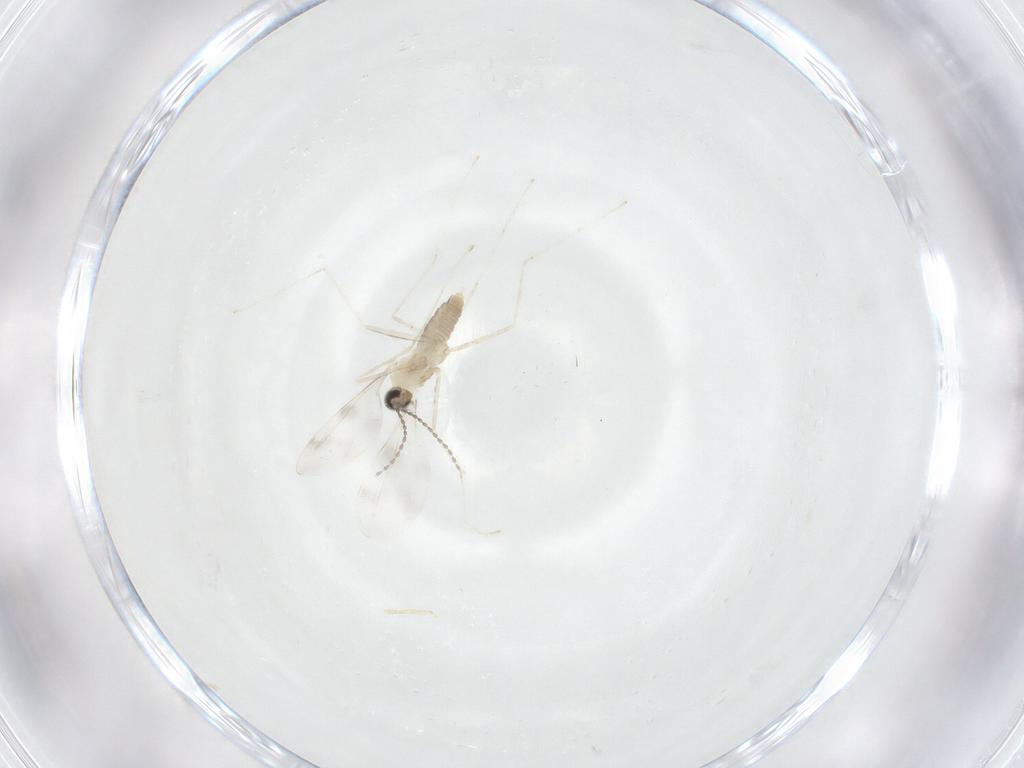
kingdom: Animalia
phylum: Arthropoda
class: Insecta
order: Diptera
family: Cecidomyiidae
